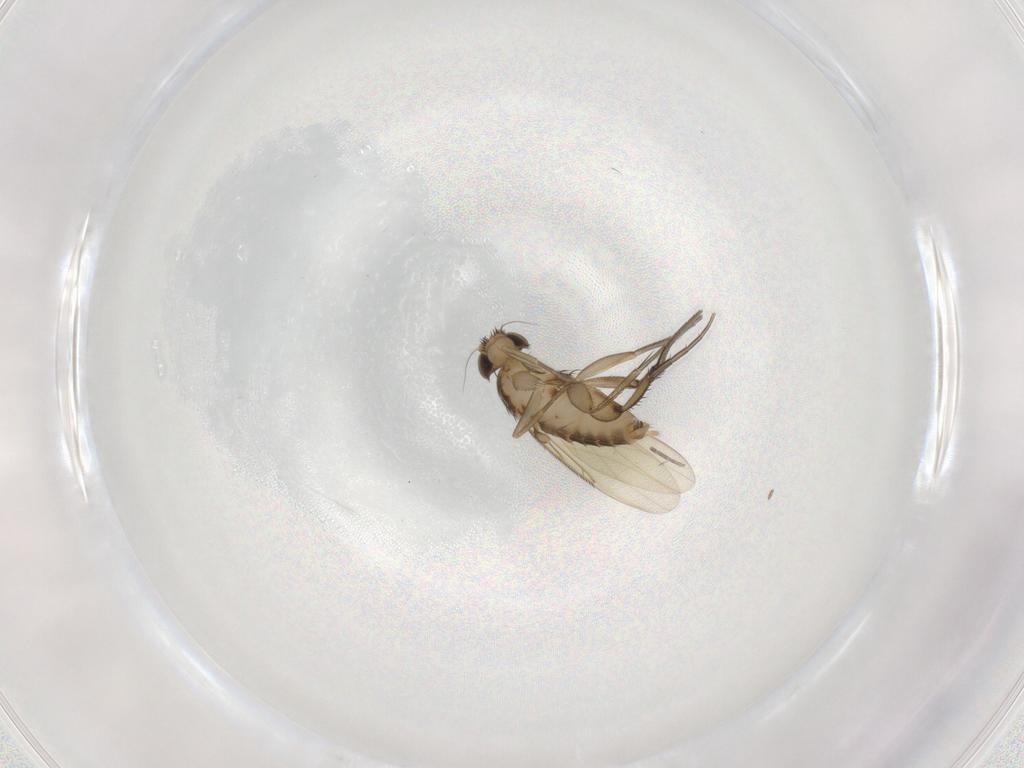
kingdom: Animalia
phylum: Arthropoda
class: Insecta
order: Diptera
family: Phoridae
